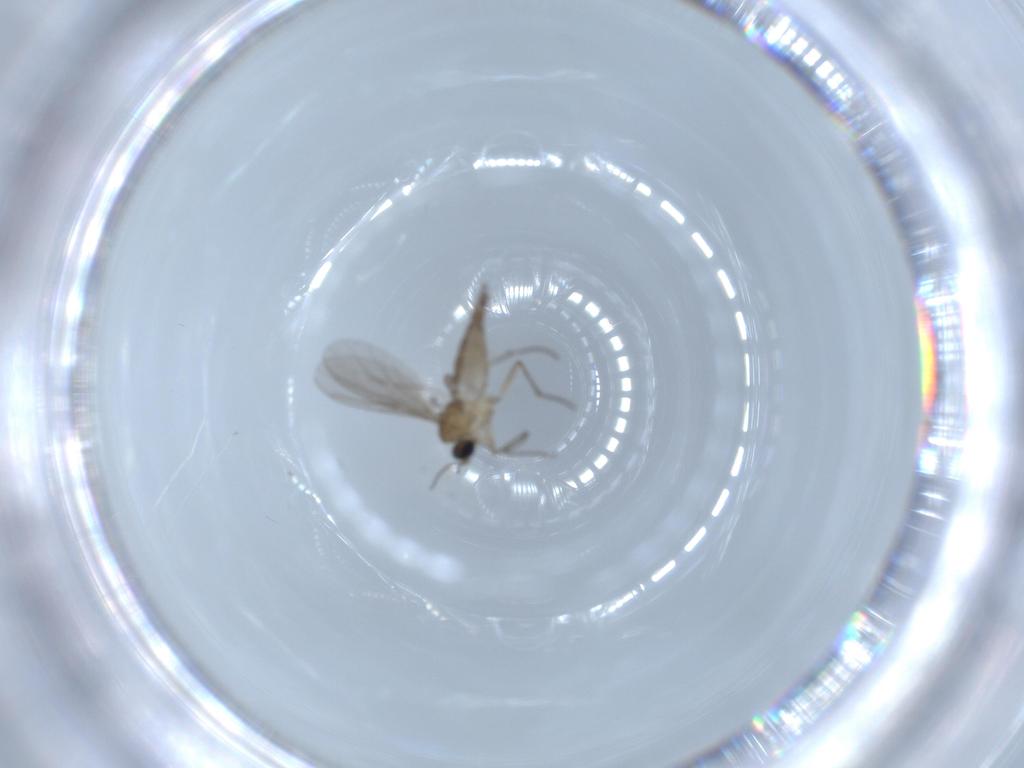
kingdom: Animalia
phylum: Arthropoda
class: Insecta
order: Diptera
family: Sciaridae
